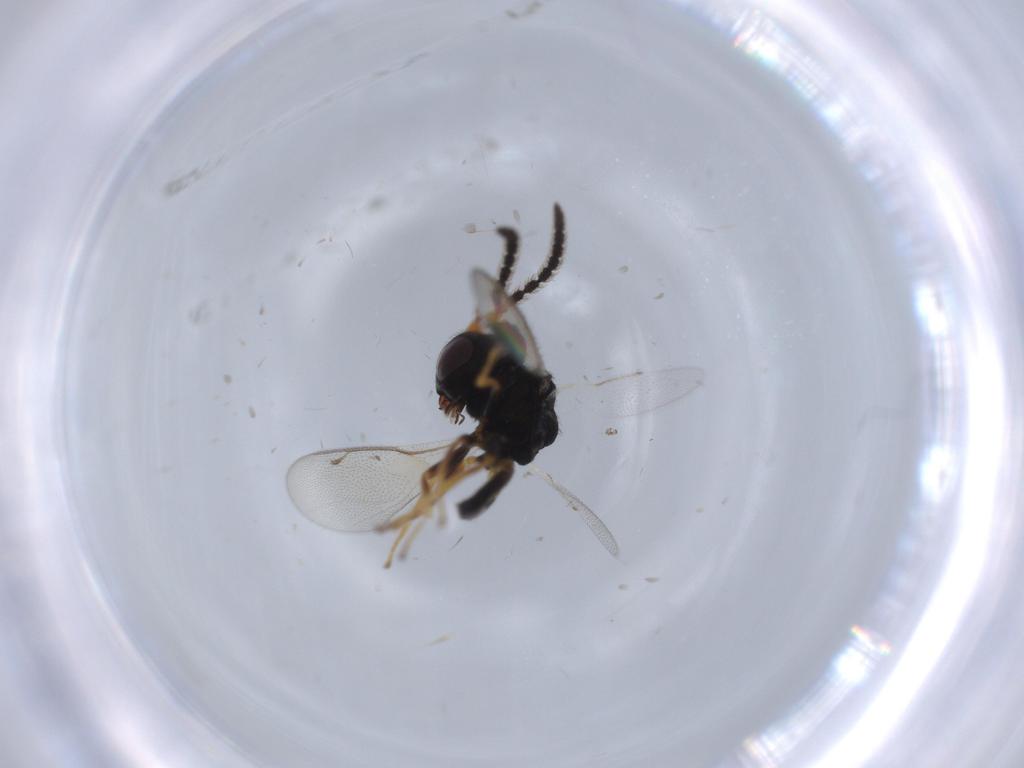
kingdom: Animalia
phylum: Arthropoda
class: Insecta
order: Hymenoptera
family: Pteromalidae
